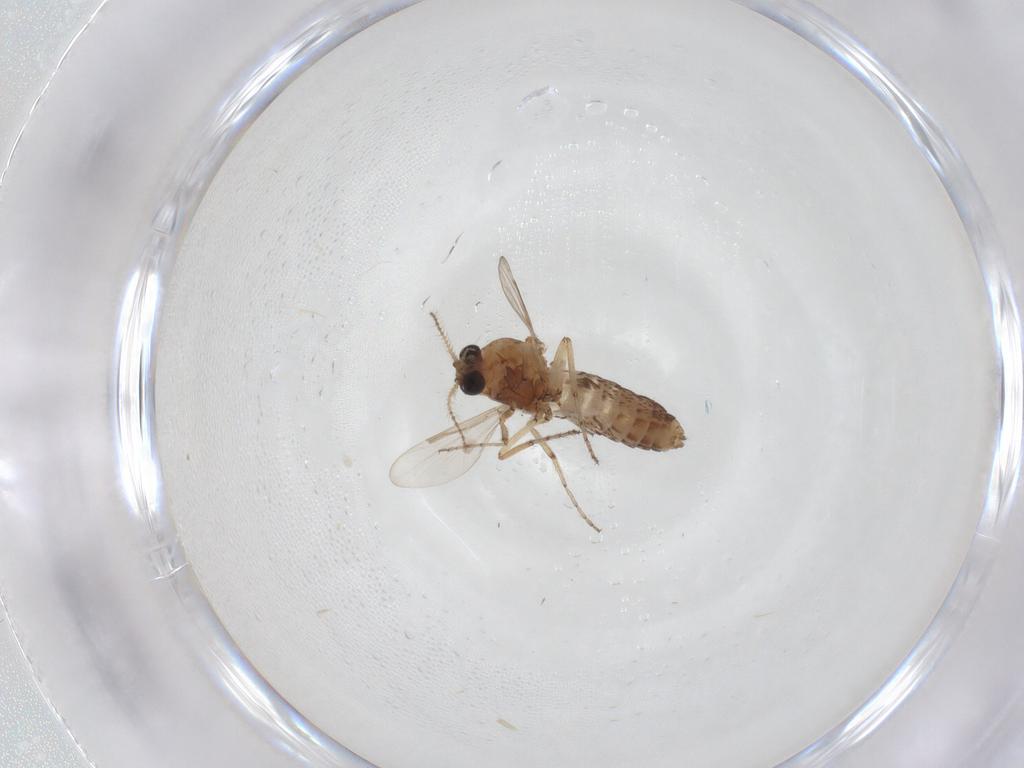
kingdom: Animalia
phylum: Arthropoda
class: Insecta
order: Diptera
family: Ceratopogonidae
